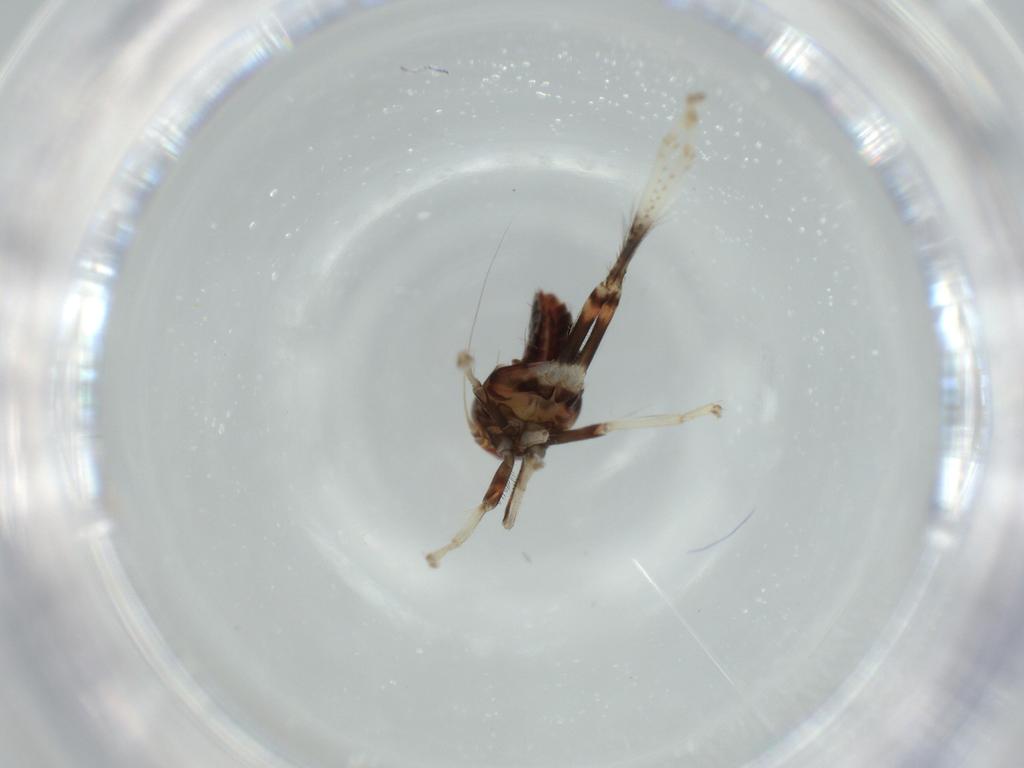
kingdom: Animalia
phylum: Arthropoda
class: Insecta
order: Hemiptera
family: Cicadellidae
